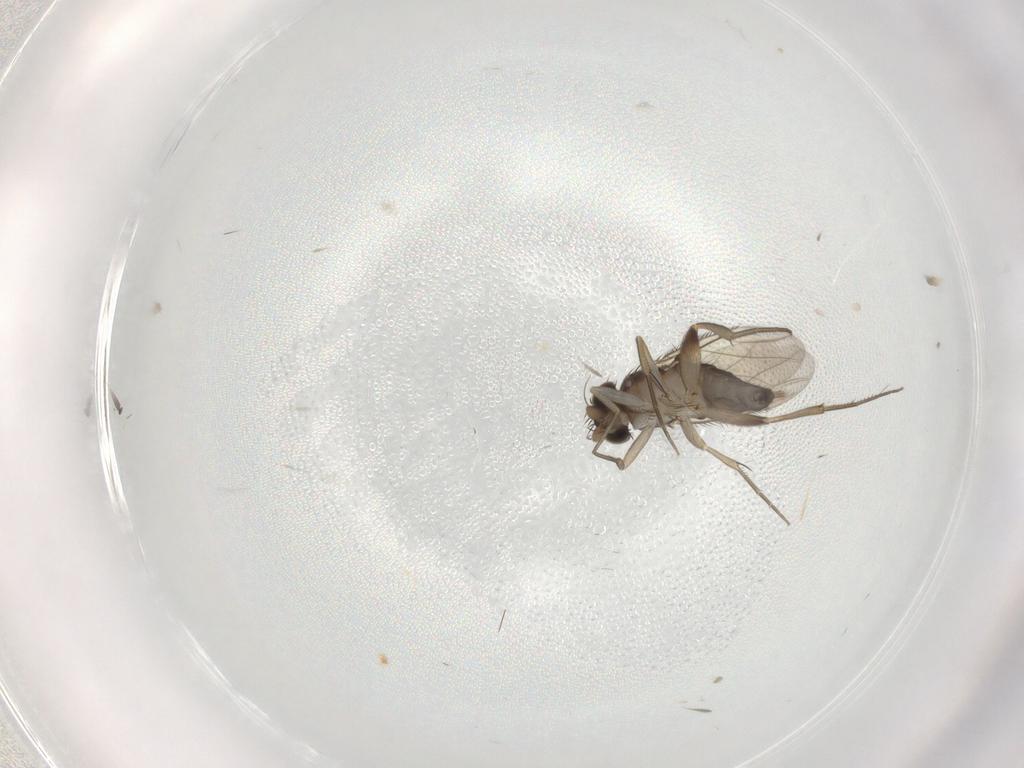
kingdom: Animalia
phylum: Arthropoda
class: Insecta
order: Diptera
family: Phoridae
